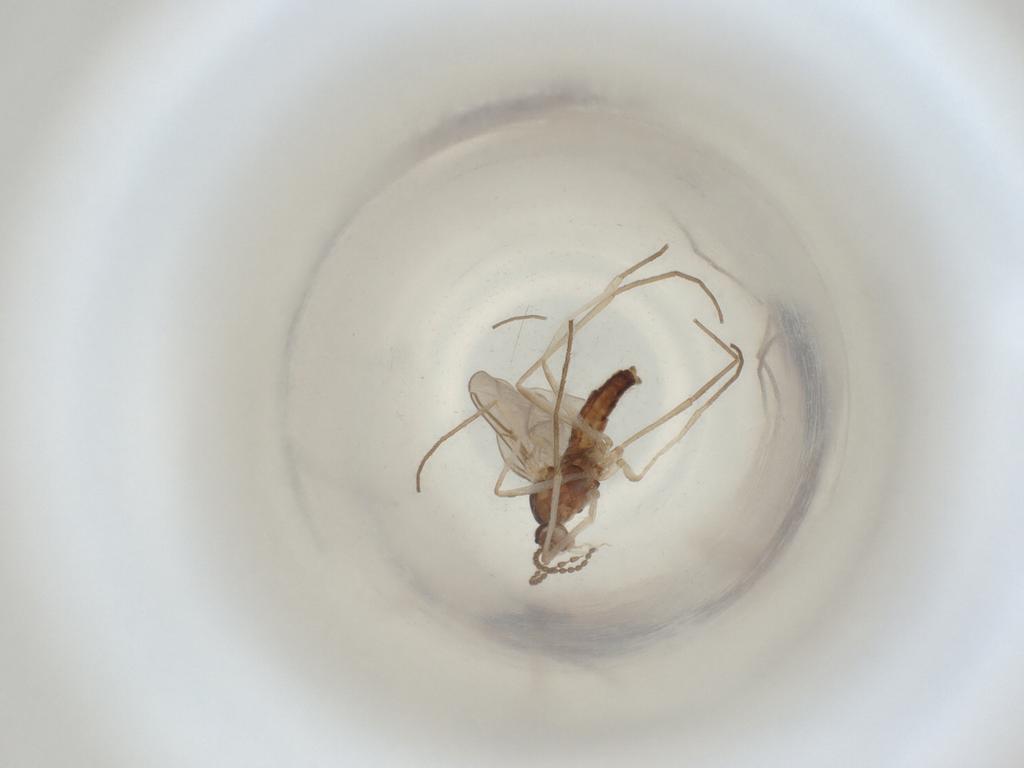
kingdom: Animalia
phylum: Arthropoda
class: Insecta
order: Diptera
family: Cecidomyiidae
